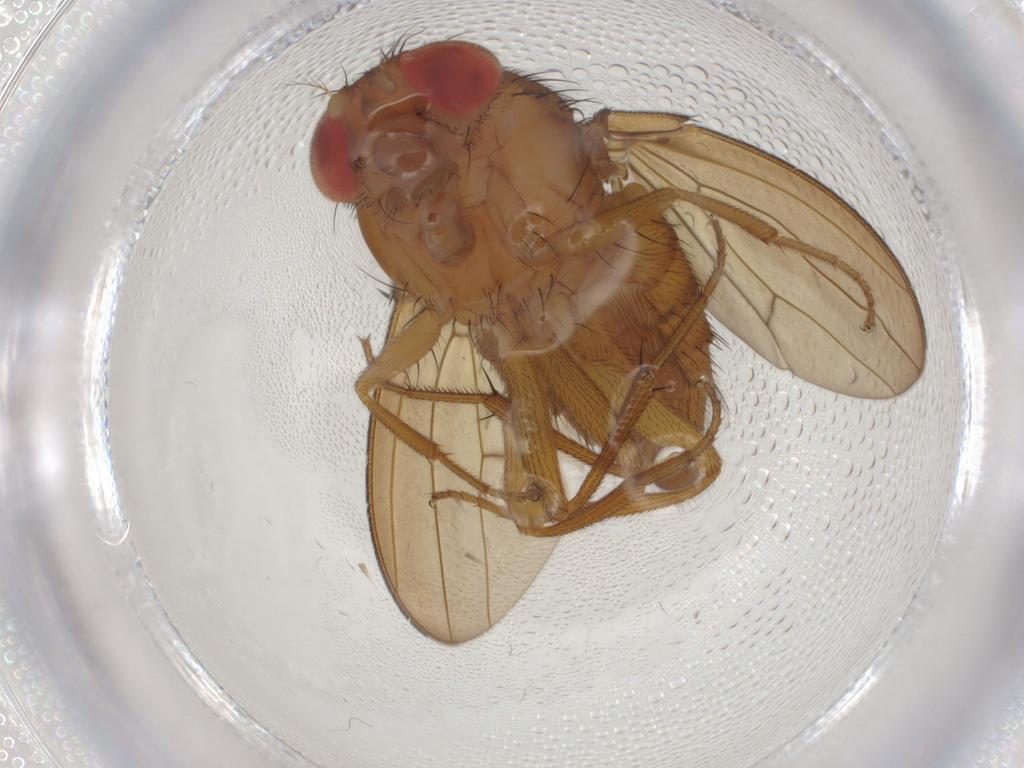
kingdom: Animalia
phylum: Arthropoda
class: Insecta
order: Diptera
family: Drosophilidae
